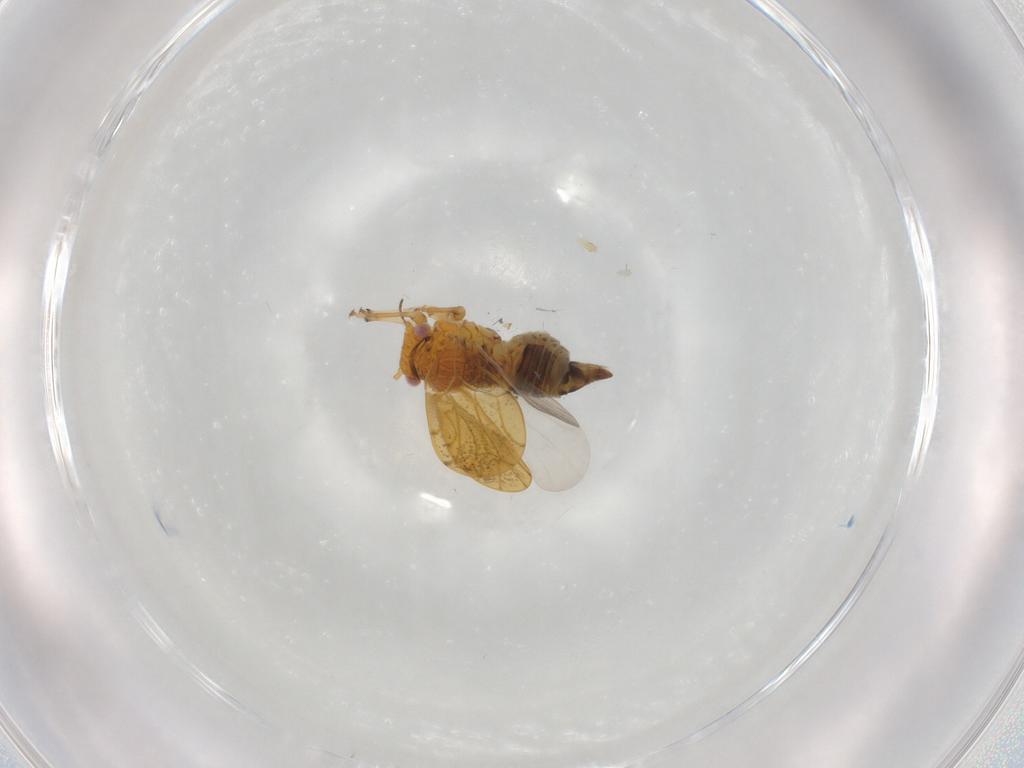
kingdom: Animalia
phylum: Arthropoda
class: Insecta
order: Hemiptera
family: Liviidae
